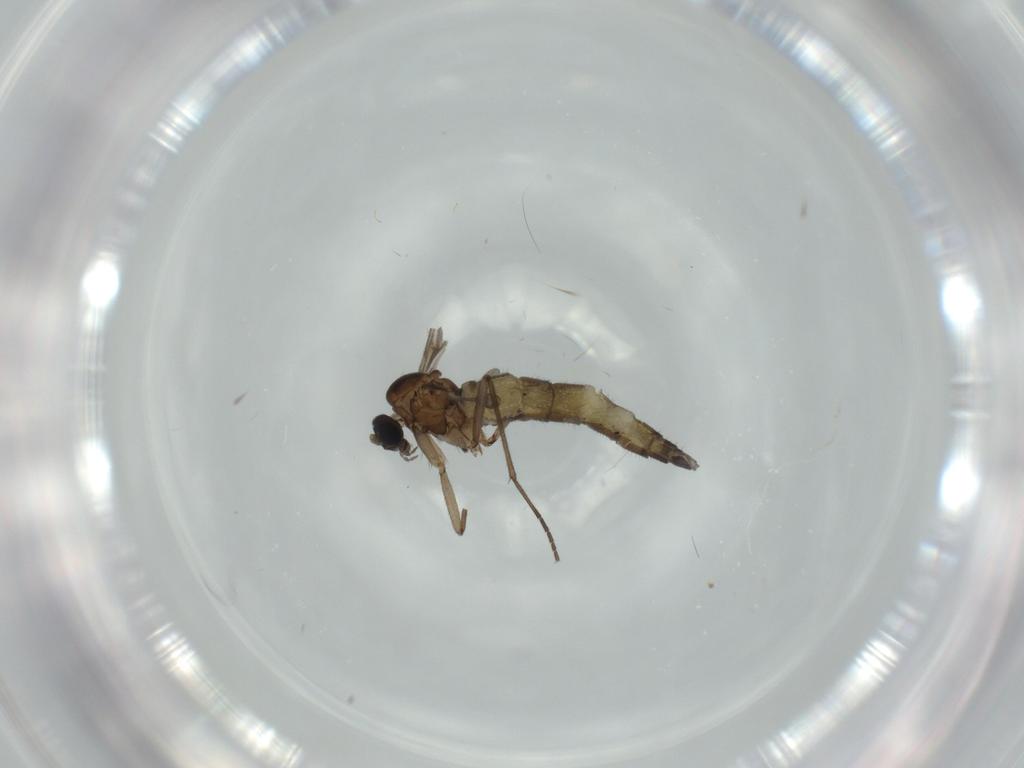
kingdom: Animalia
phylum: Arthropoda
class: Insecta
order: Diptera
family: Sciaridae
